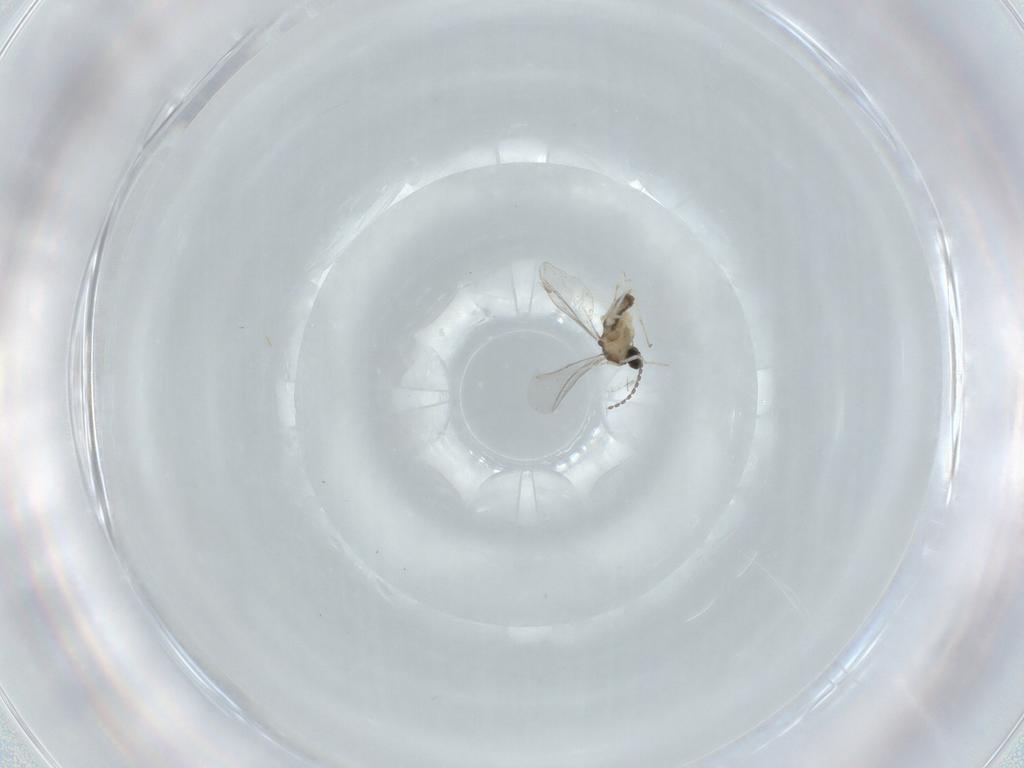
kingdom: Animalia
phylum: Arthropoda
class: Insecta
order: Diptera
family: Cecidomyiidae
